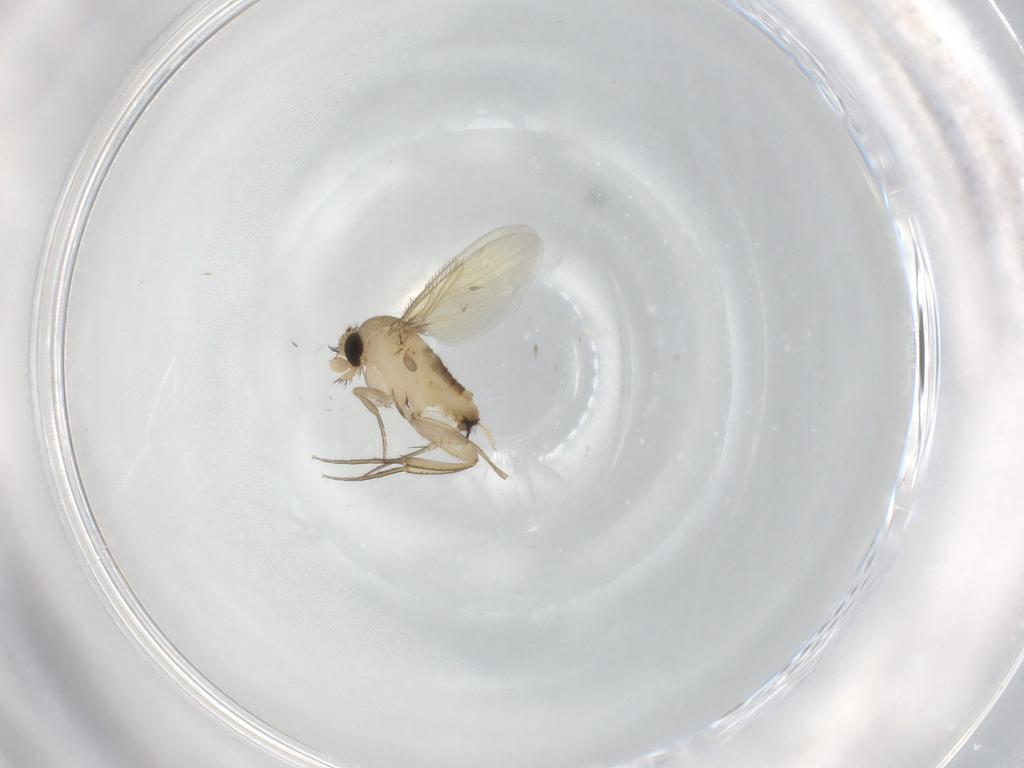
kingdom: Animalia
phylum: Arthropoda
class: Insecta
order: Diptera
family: Phoridae
